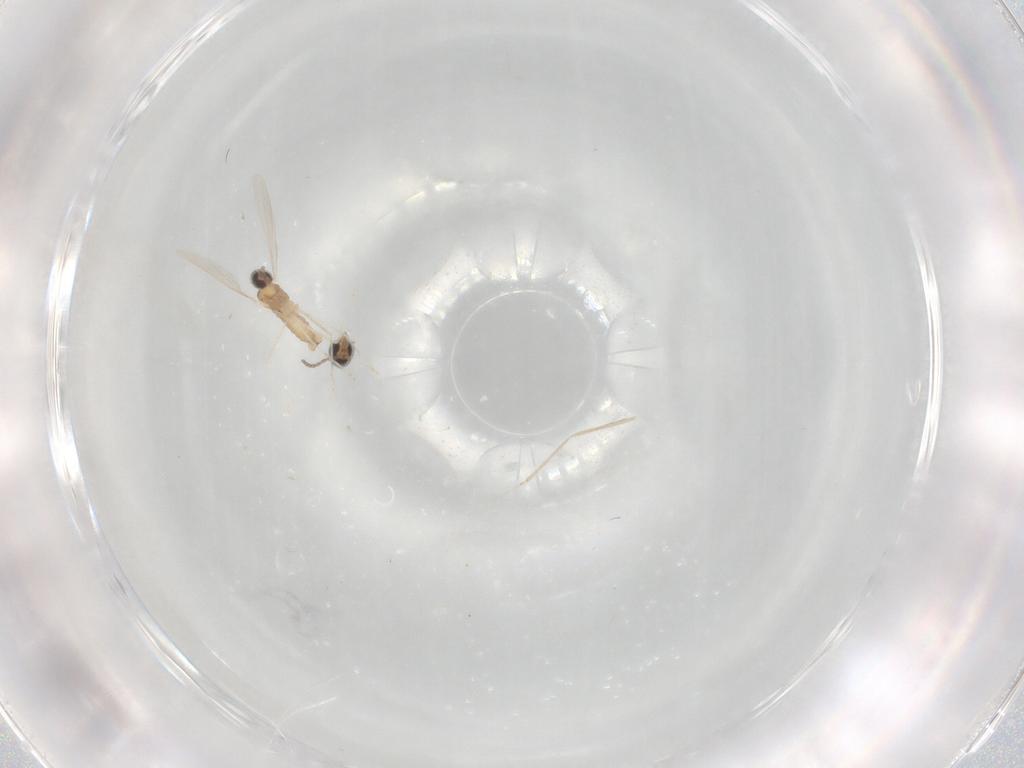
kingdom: Animalia
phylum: Arthropoda
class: Insecta
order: Diptera
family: Cecidomyiidae
